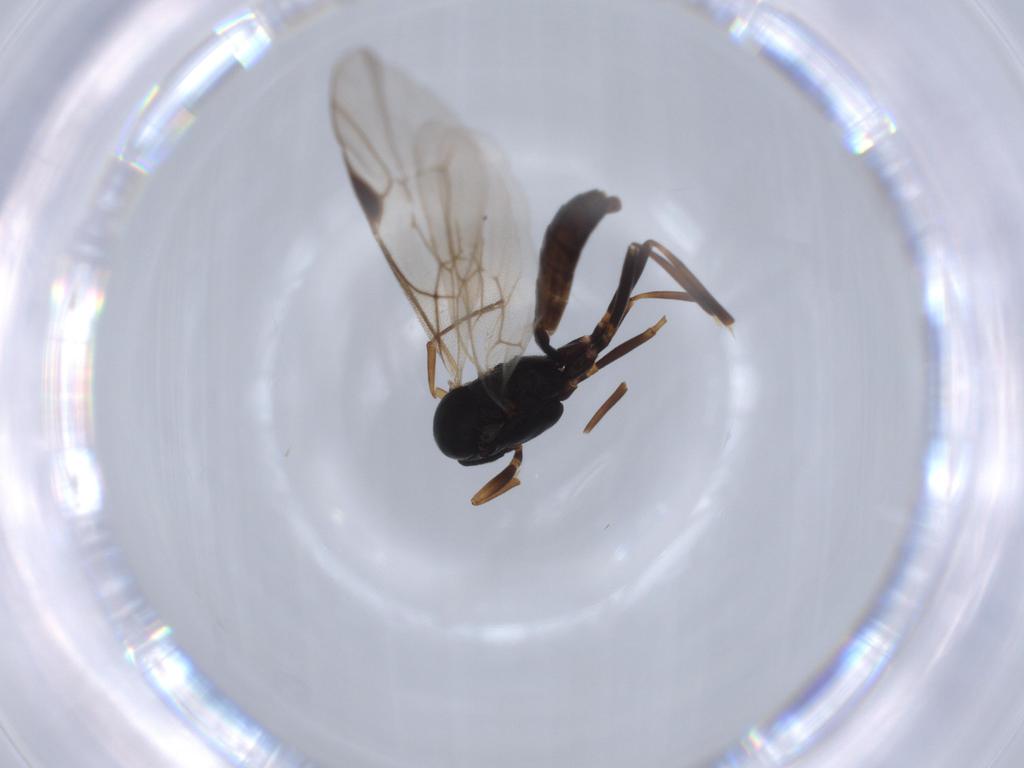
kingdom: Animalia
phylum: Arthropoda
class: Insecta
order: Hymenoptera
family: Ichneumonidae
